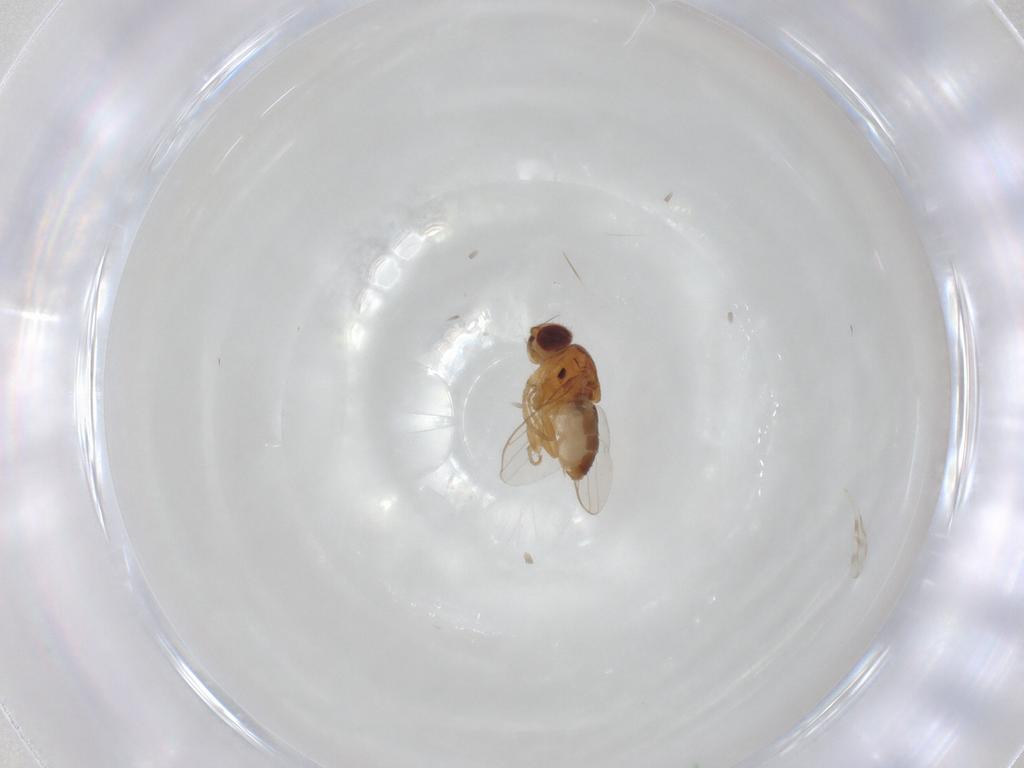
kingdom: Animalia
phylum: Arthropoda
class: Insecta
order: Diptera
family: Chloropidae
